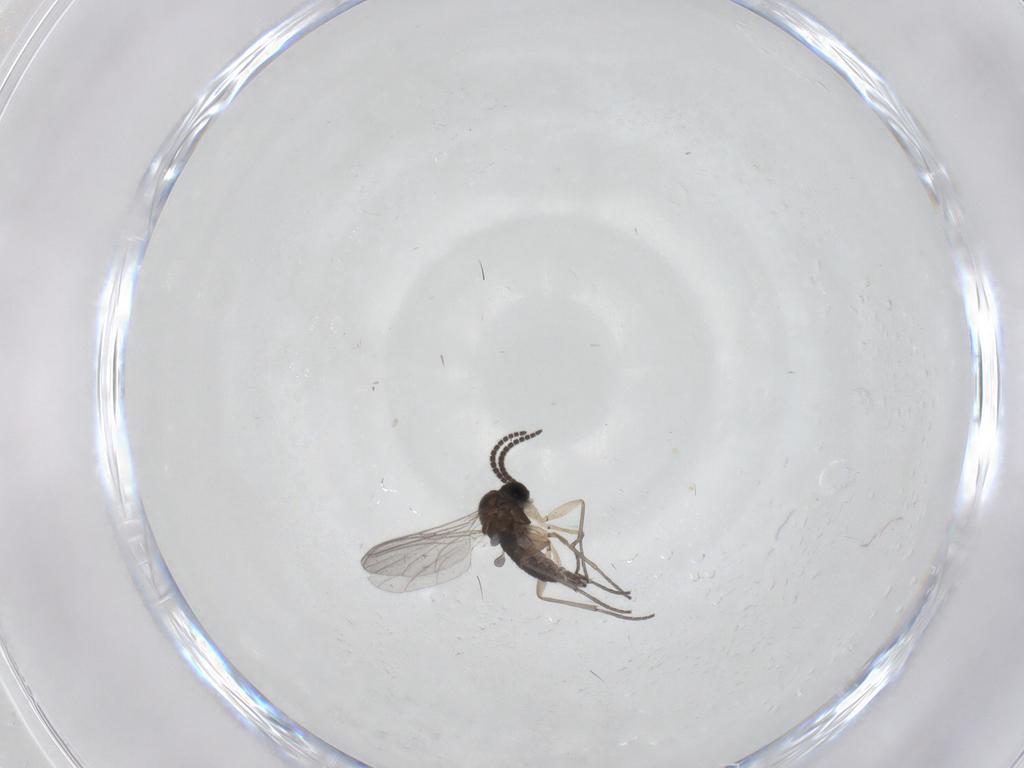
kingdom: Animalia
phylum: Arthropoda
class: Insecta
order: Diptera
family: Sciaridae
